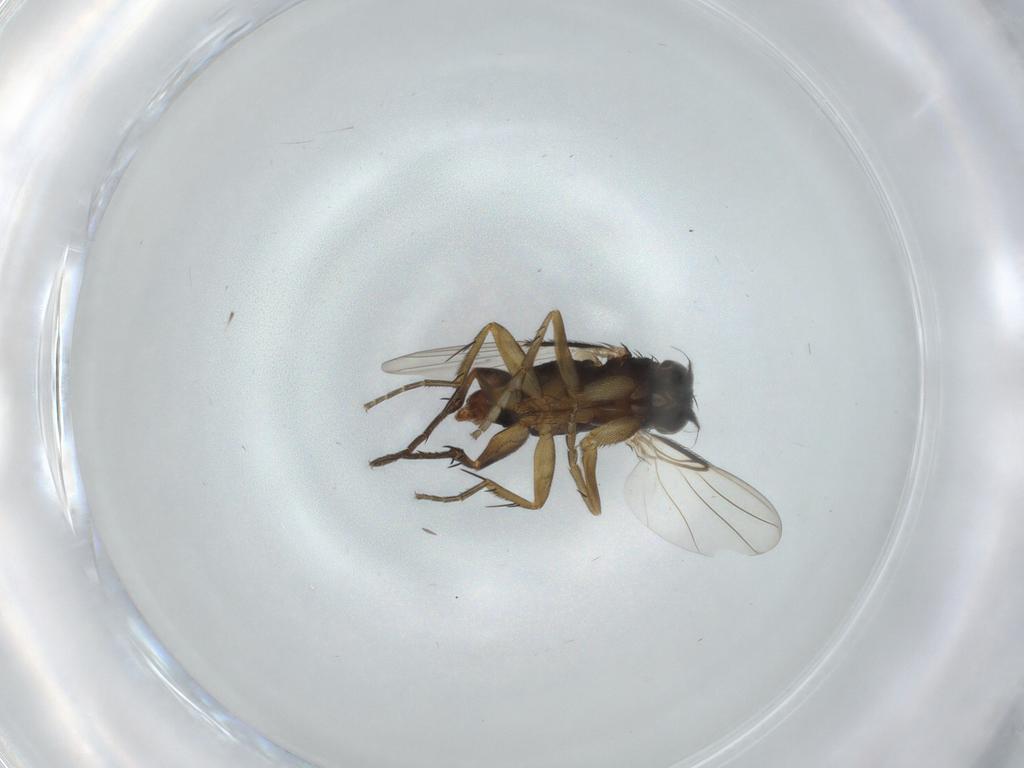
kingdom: Animalia
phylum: Arthropoda
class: Insecta
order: Diptera
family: Phoridae
